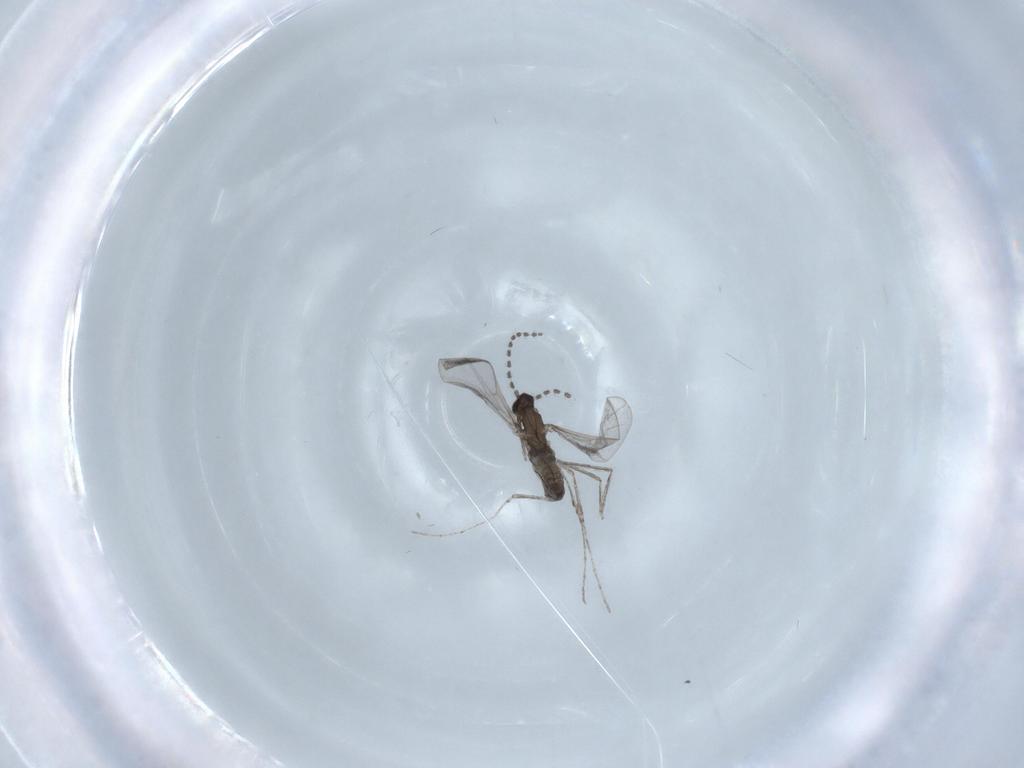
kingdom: Animalia
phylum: Arthropoda
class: Insecta
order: Diptera
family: Cecidomyiidae
